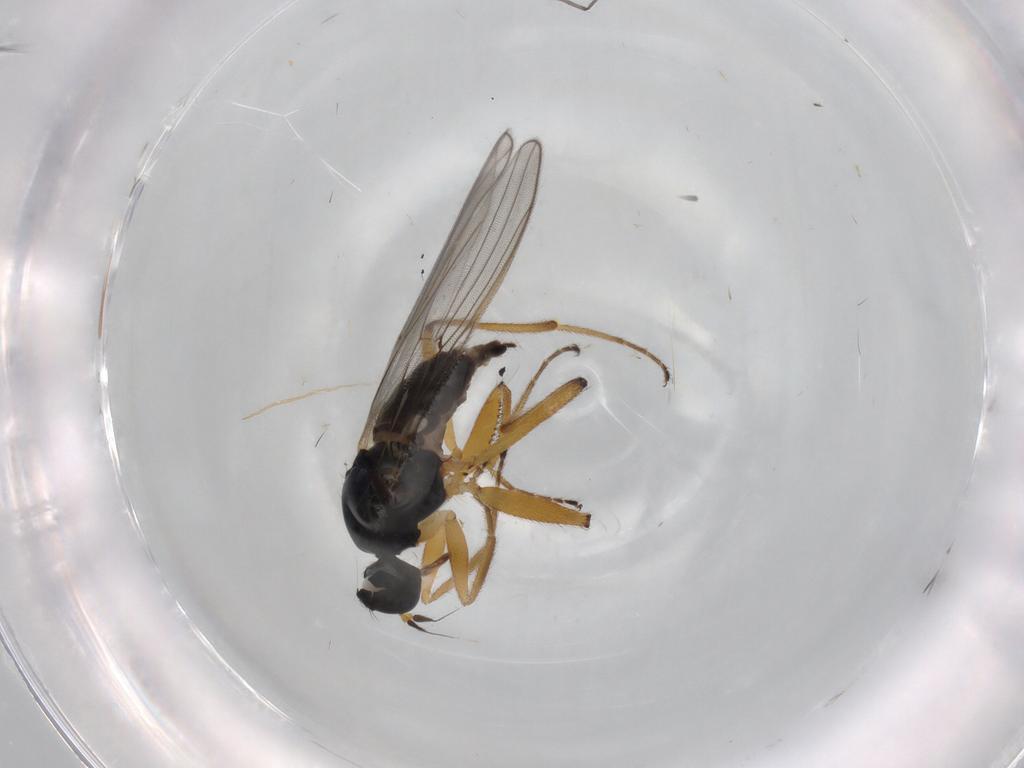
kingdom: Animalia
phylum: Arthropoda
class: Insecta
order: Diptera
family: Hybotidae
